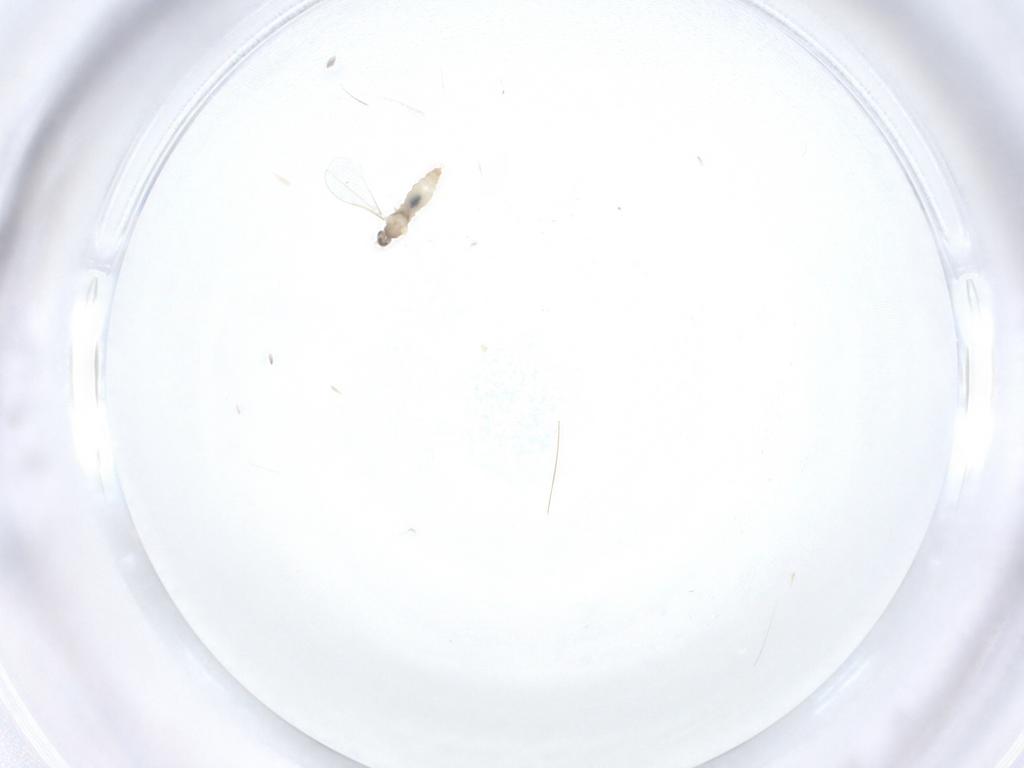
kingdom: Animalia
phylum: Arthropoda
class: Insecta
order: Diptera
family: Cecidomyiidae
